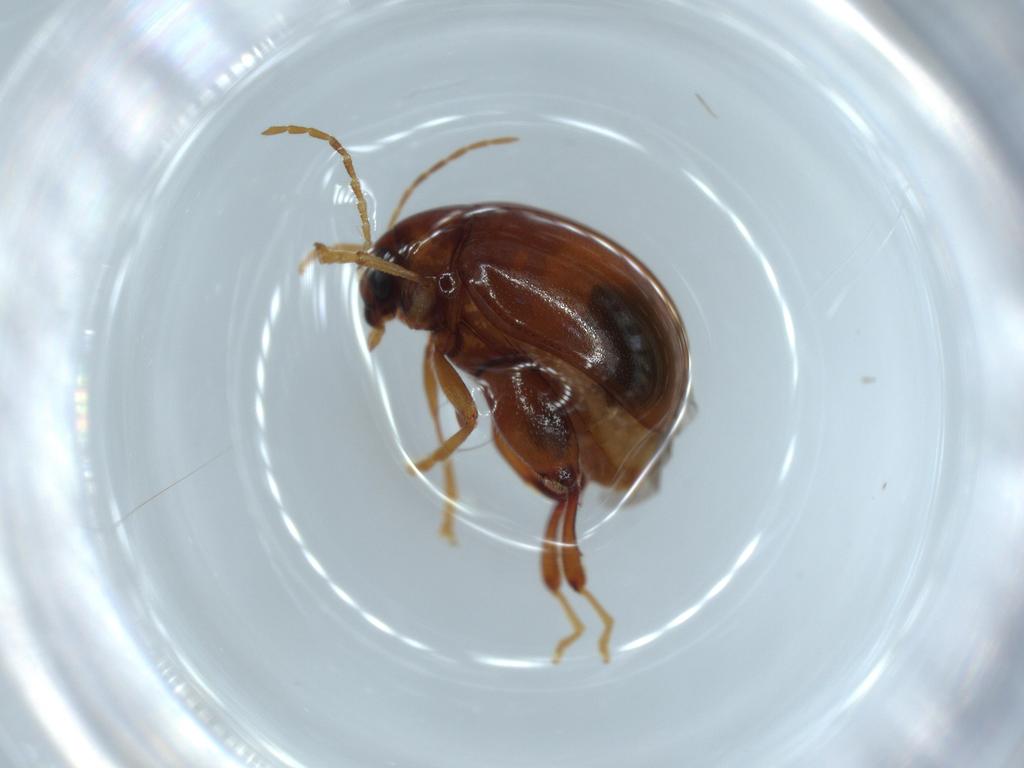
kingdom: Animalia
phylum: Arthropoda
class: Insecta
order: Coleoptera
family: Chrysomelidae
